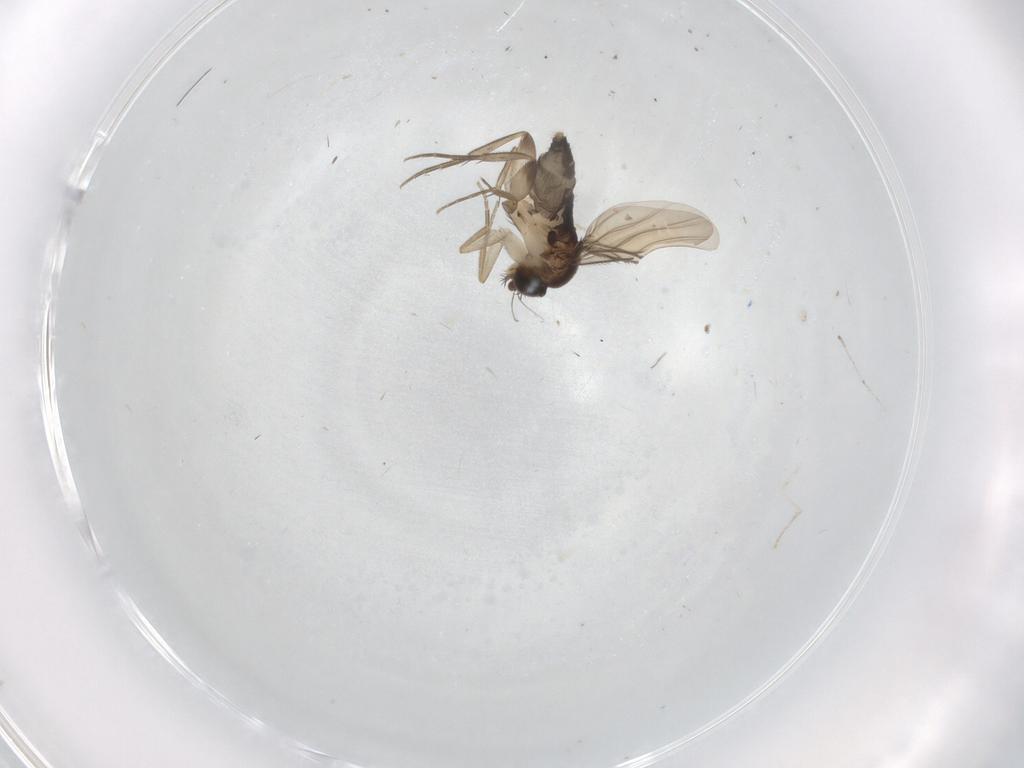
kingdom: Animalia
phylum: Arthropoda
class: Insecta
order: Diptera
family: Phoridae
